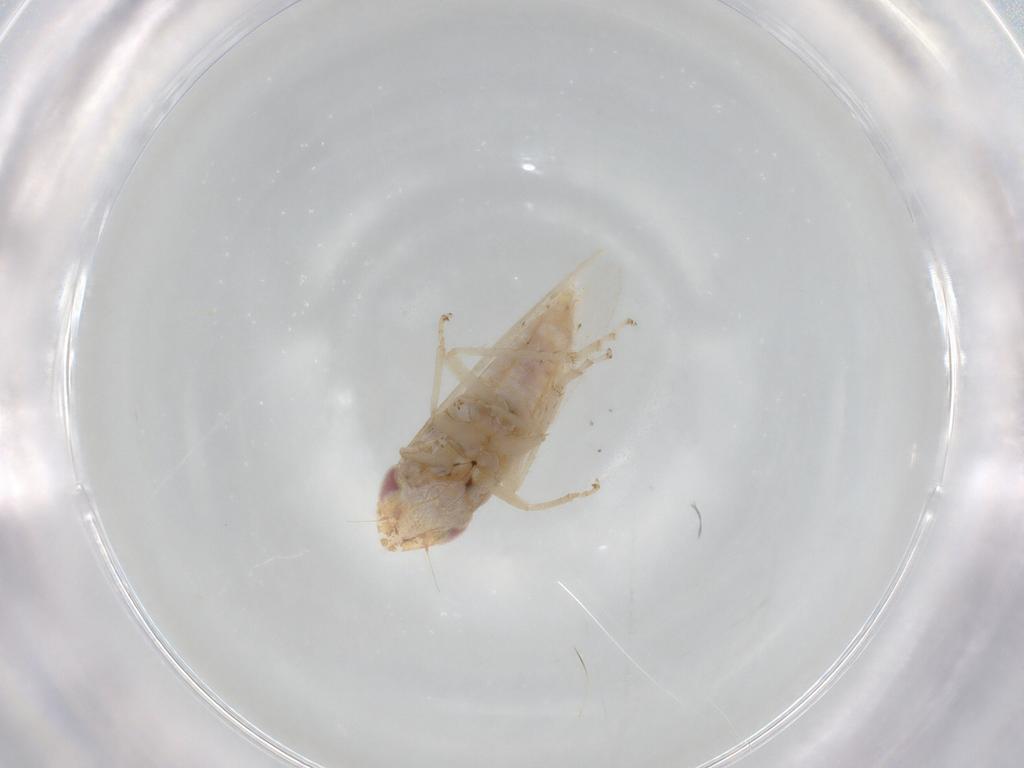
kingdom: Animalia
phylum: Arthropoda
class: Insecta
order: Hemiptera
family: Cicadellidae
